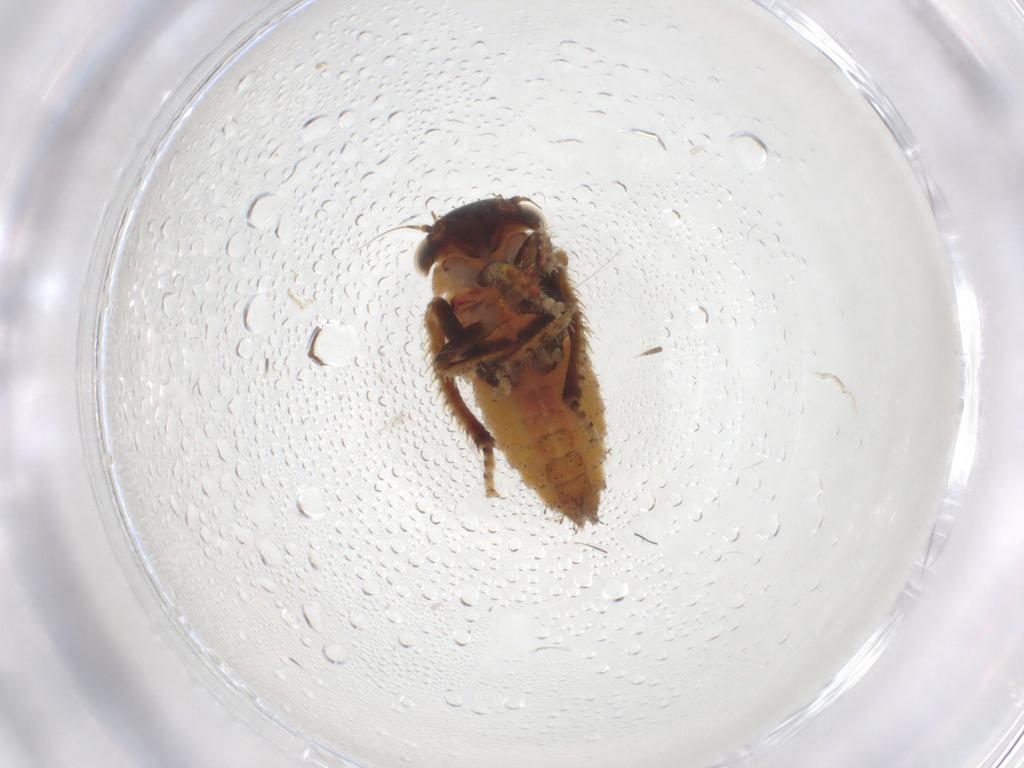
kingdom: Animalia
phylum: Arthropoda
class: Insecta
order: Hemiptera
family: Cicadellidae
